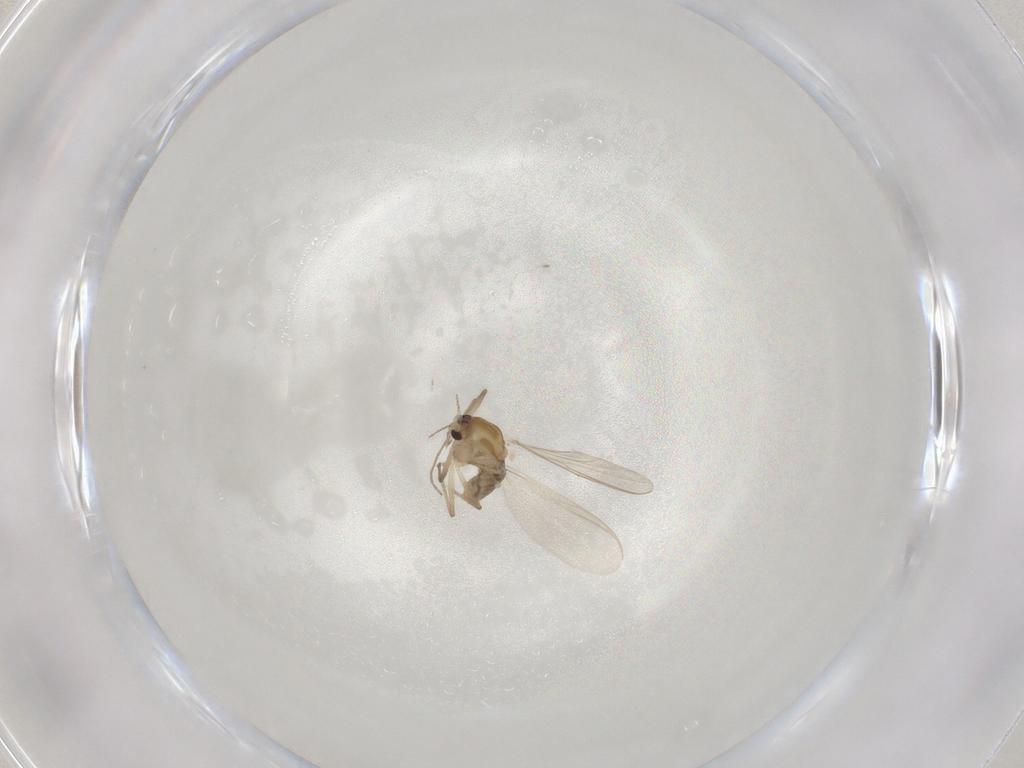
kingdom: Animalia
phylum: Arthropoda
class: Insecta
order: Diptera
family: Chironomidae
